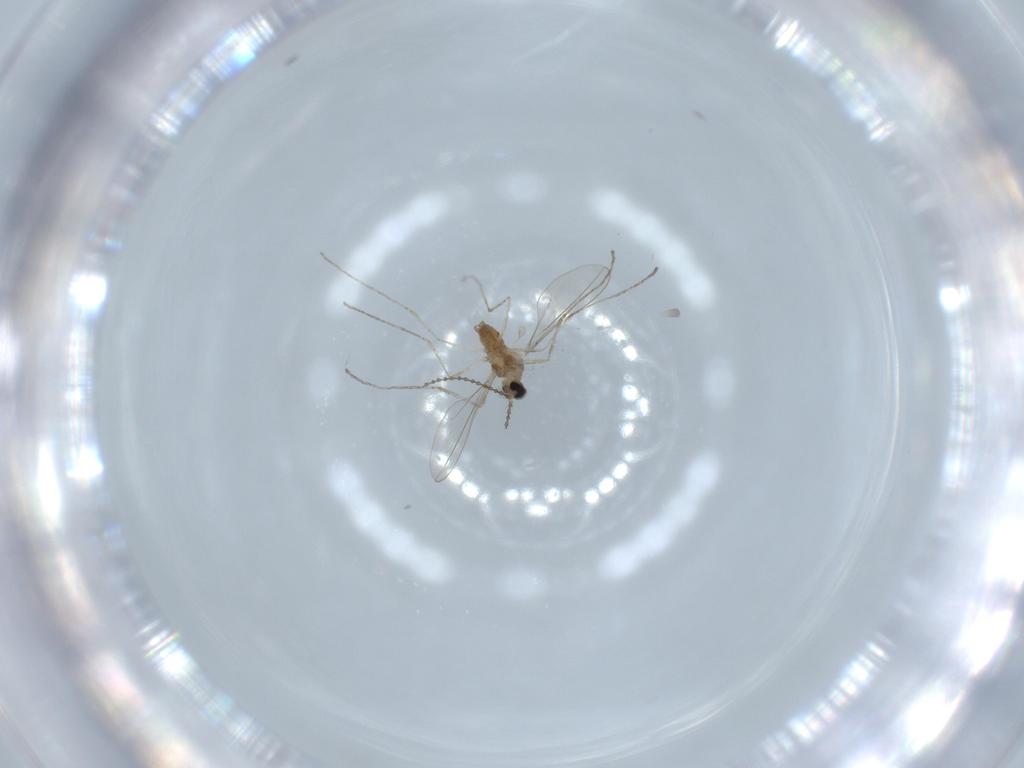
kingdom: Animalia
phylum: Arthropoda
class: Insecta
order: Diptera
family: Cecidomyiidae
